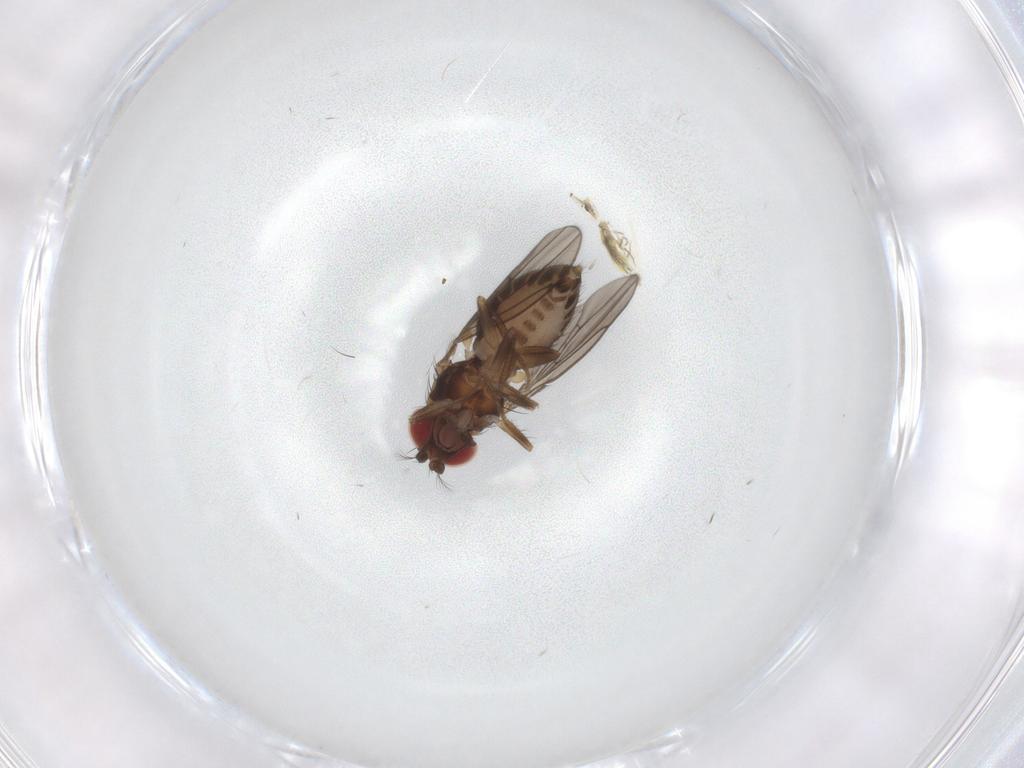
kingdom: Animalia
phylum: Arthropoda
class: Insecta
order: Diptera
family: Drosophilidae
